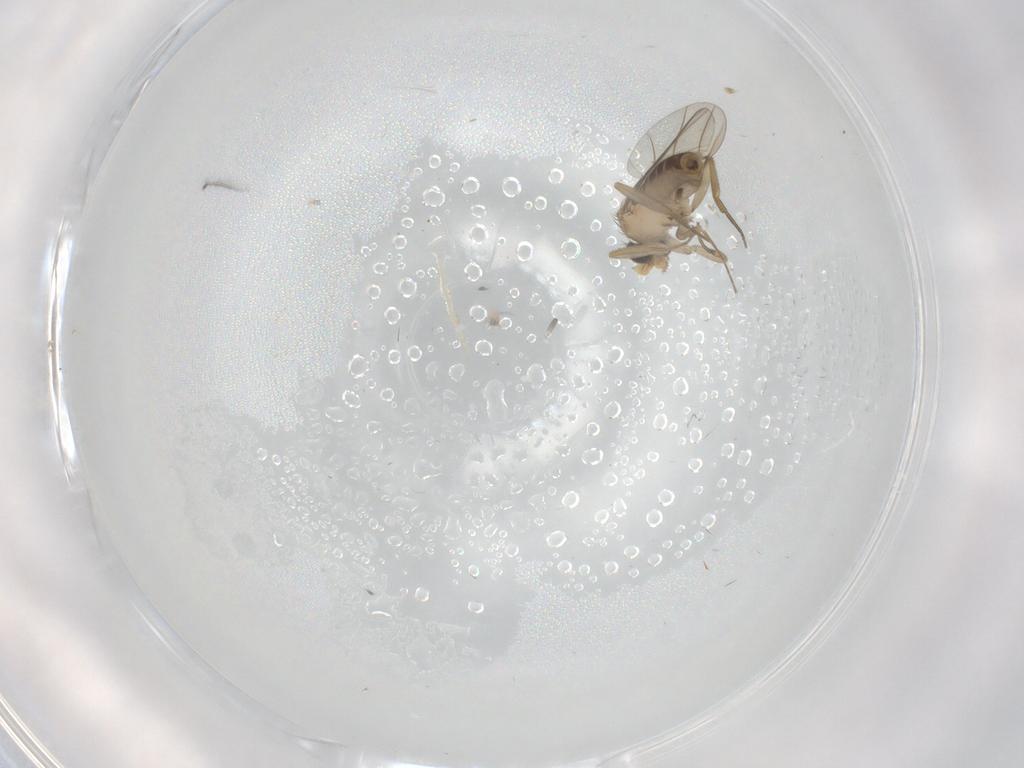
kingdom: Animalia
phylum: Arthropoda
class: Insecta
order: Diptera
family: Phoridae
